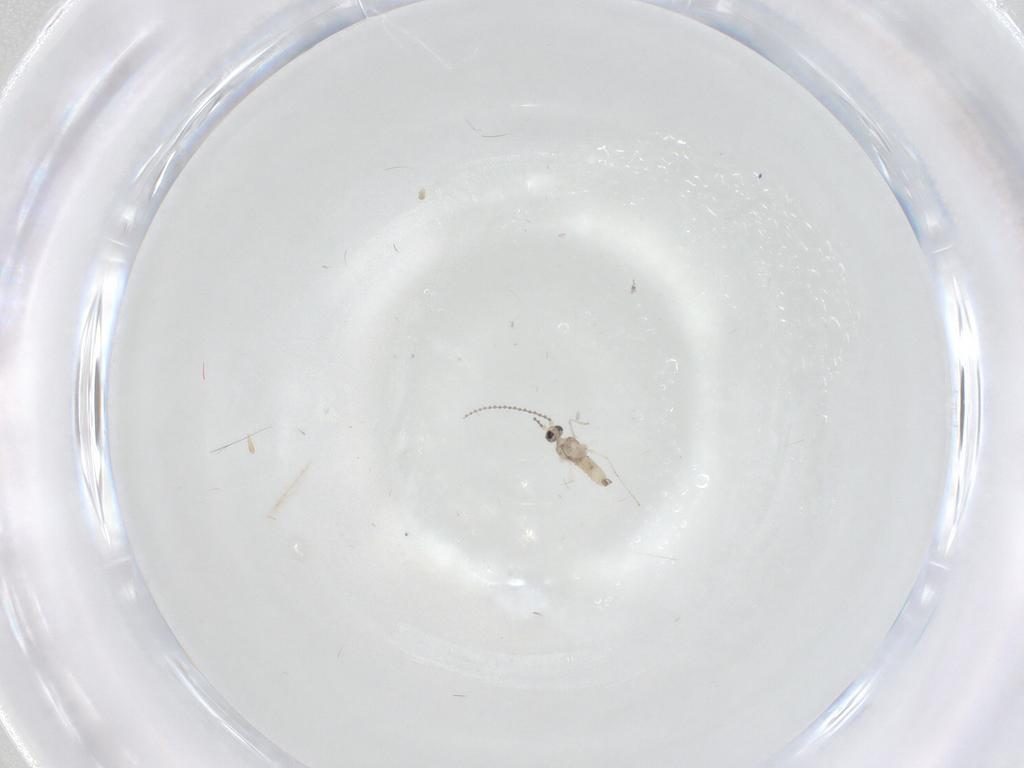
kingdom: Animalia
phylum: Arthropoda
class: Insecta
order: Diptera
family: Cecidomyiidae
